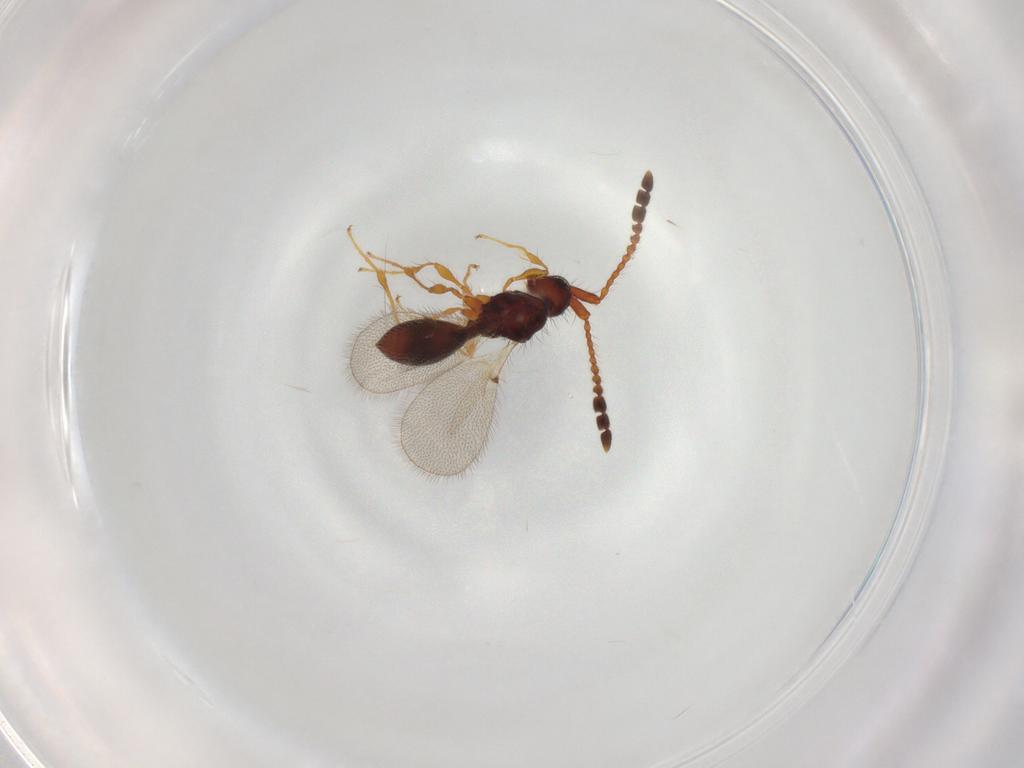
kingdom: Animalia
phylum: Arthropoda
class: Insecta
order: Hymenoptera
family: Diapriidae
